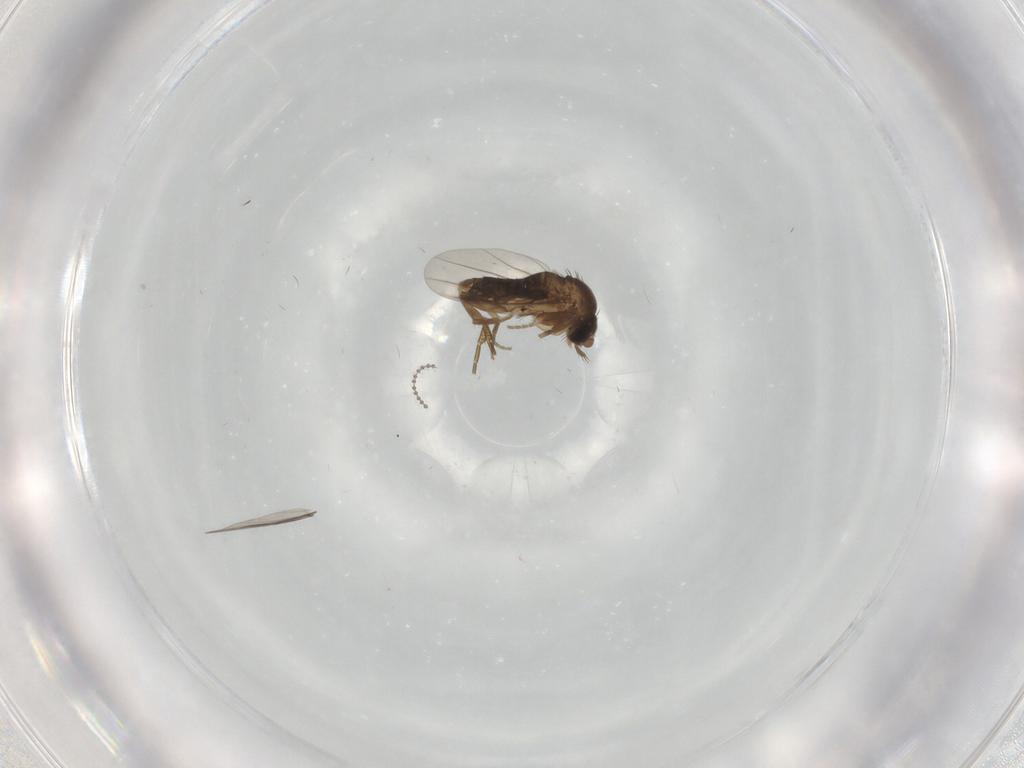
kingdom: Animalia
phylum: Arthropoda
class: Insecta
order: Diptera
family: Phoridae
